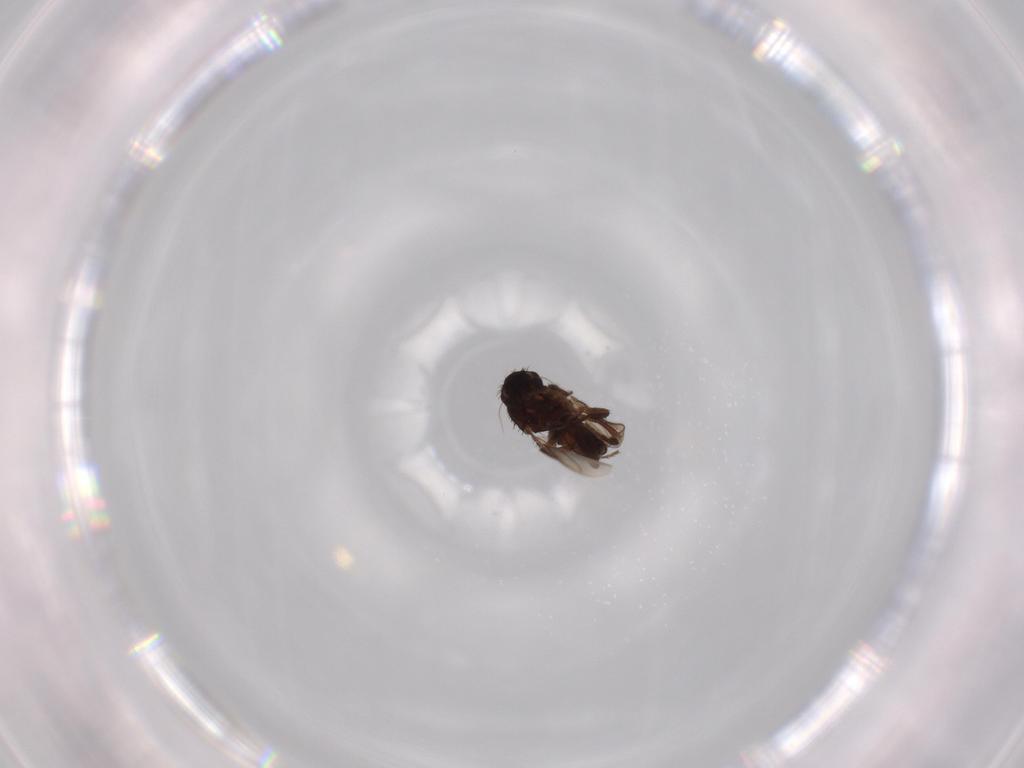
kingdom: Animalia
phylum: Arthropoda
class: Insecta
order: Diptera
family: Sphaeroceridae
